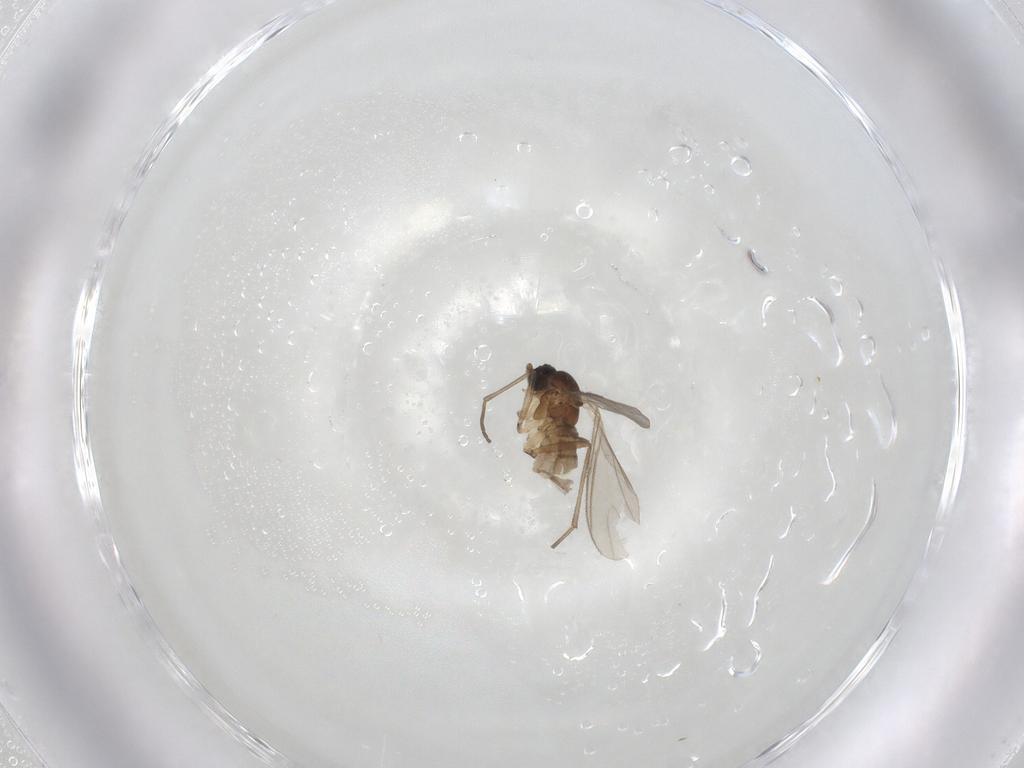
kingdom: Animalia
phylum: Arthropoda
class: Insecta
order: Diptera
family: Sciaridae
